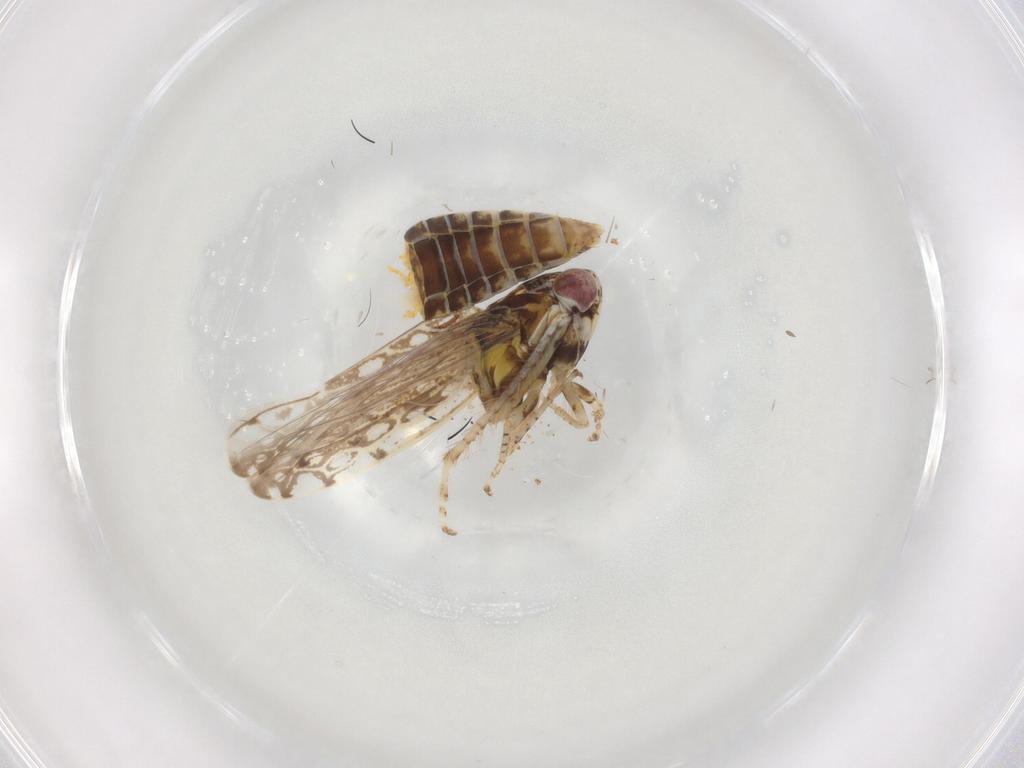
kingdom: Animalia
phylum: Arthropoda
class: Insecta
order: Hemiptera
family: Cicadellidae
